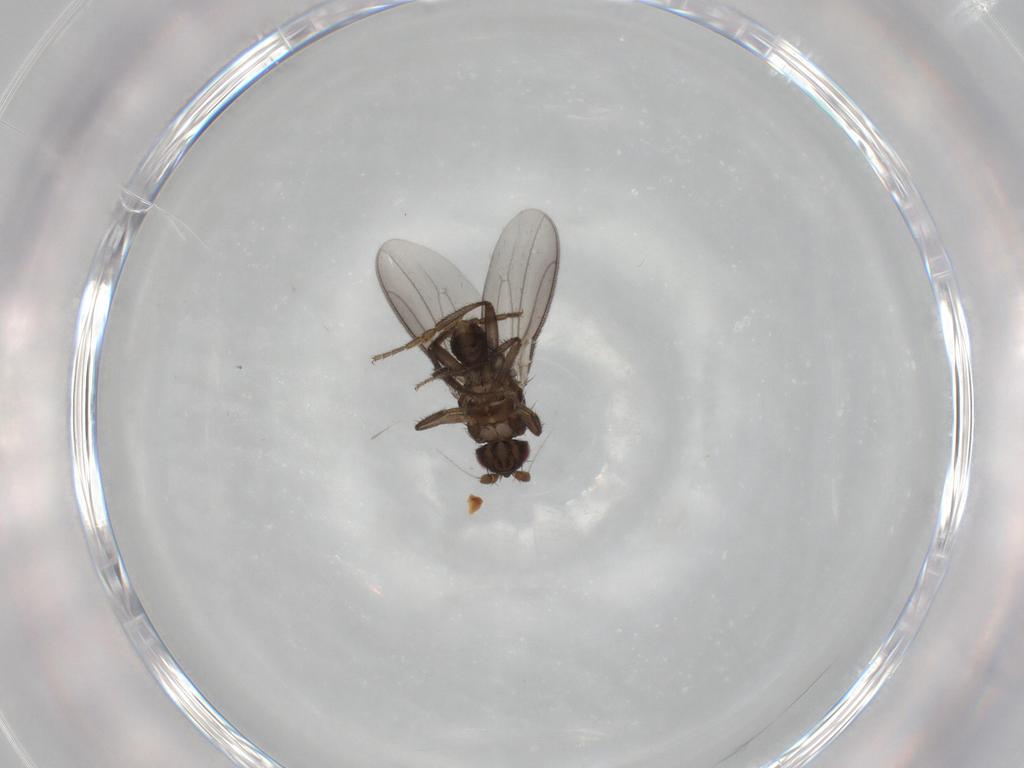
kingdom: Animalia
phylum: Arthropoda
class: Insecta
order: Diptera
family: Sphaeroceridae
